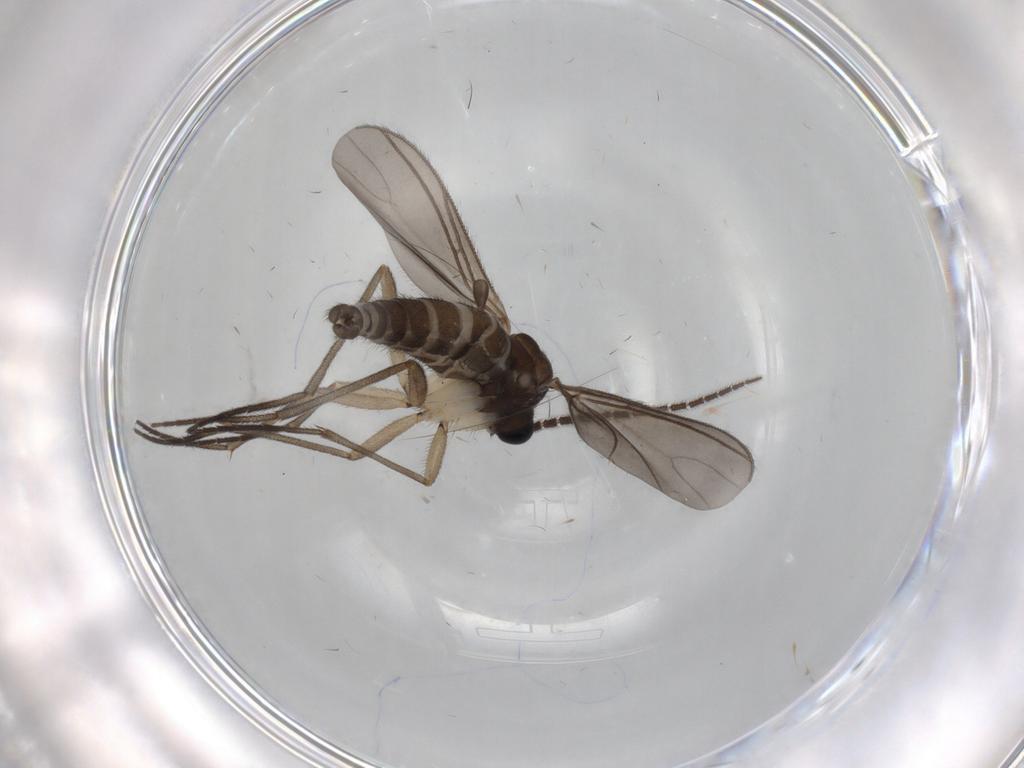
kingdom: Animalia
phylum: Arthropoda
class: Insecta
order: Diptera
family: Sciaridae
